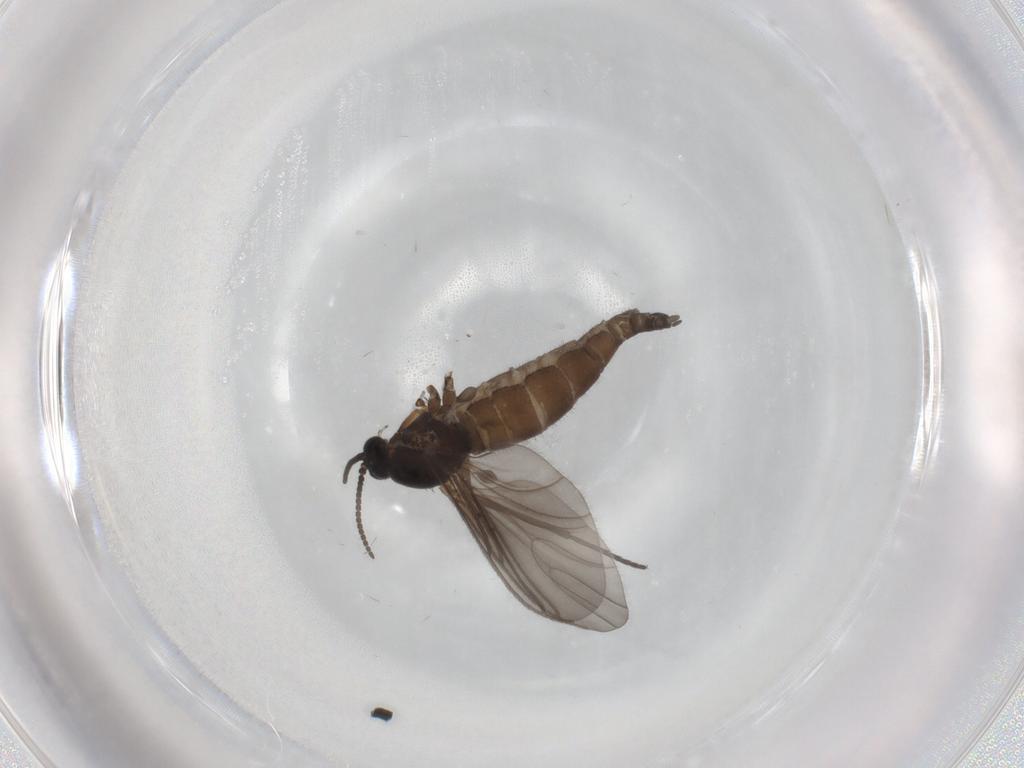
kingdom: Animalia
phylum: Arthropoda
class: Insecta
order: Diptera
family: Sciaridae
